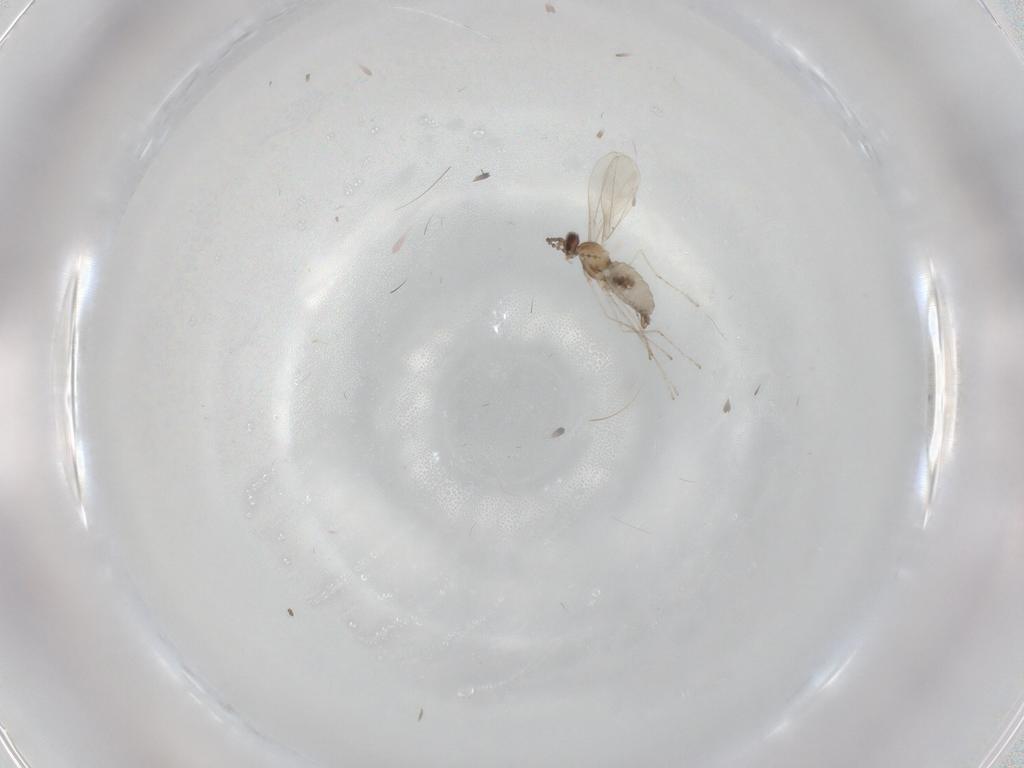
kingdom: Animalia
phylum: Arthropoda
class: Insecta
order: Diptera
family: Cecidomyiidae
